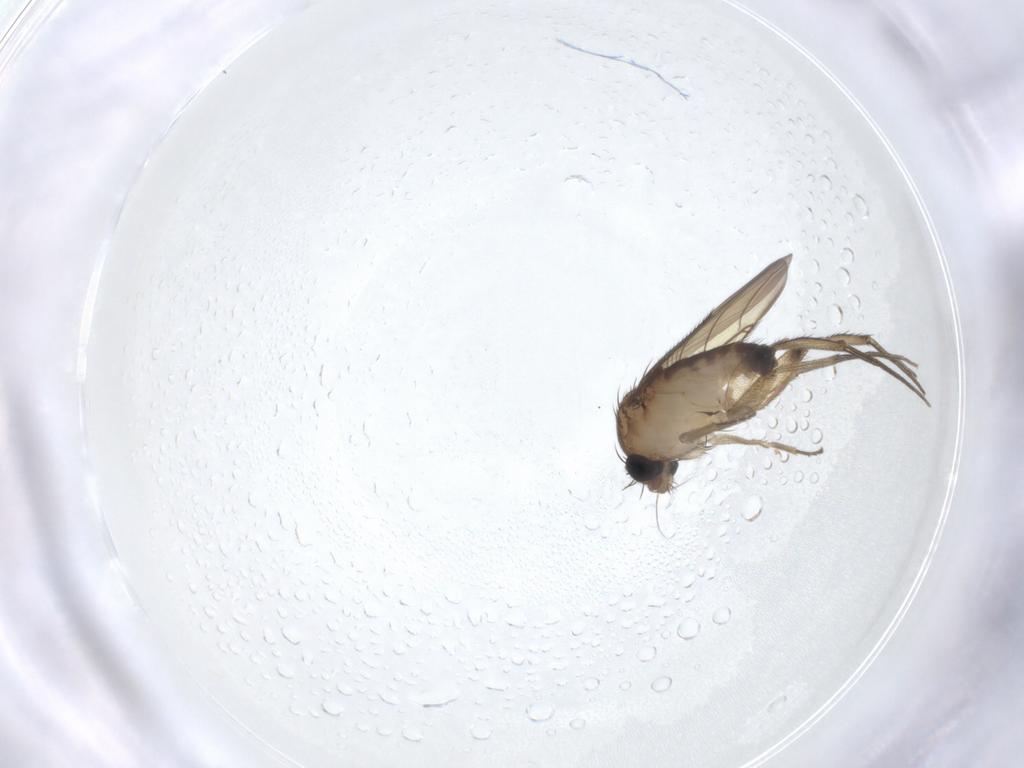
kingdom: Animalia
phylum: Arthropoda
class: Insecta
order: Diptera
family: Phoridae
